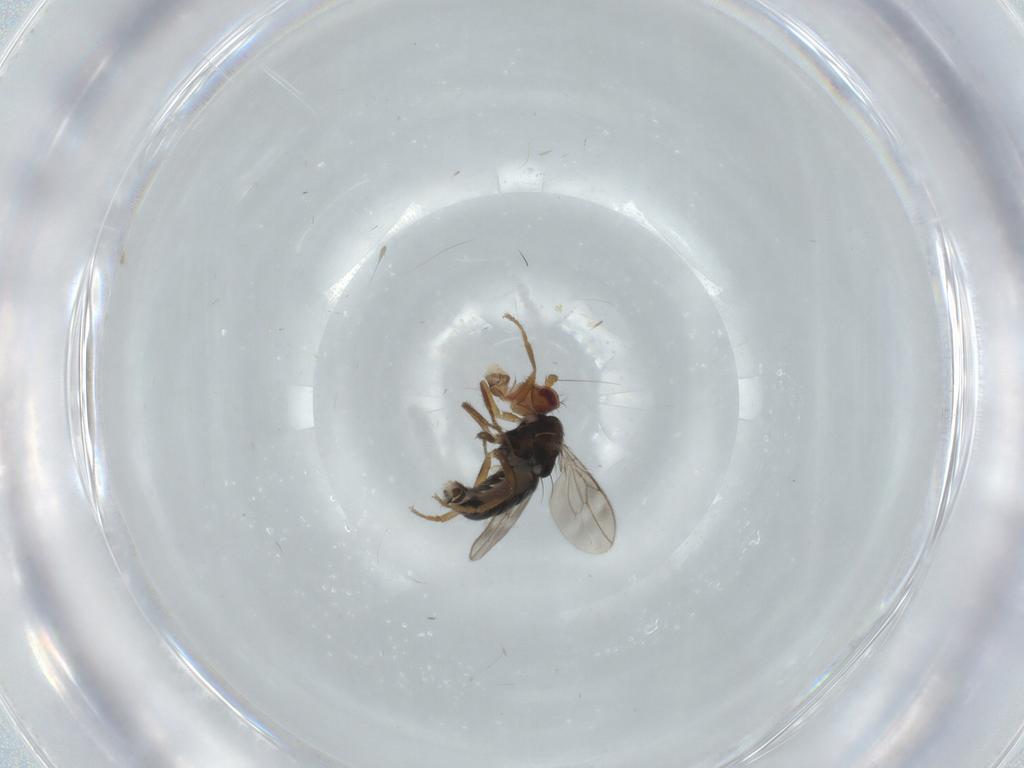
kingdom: Animalia
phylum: Arthropoda
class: Insecta
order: Diptera
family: Sphaeroceridae
